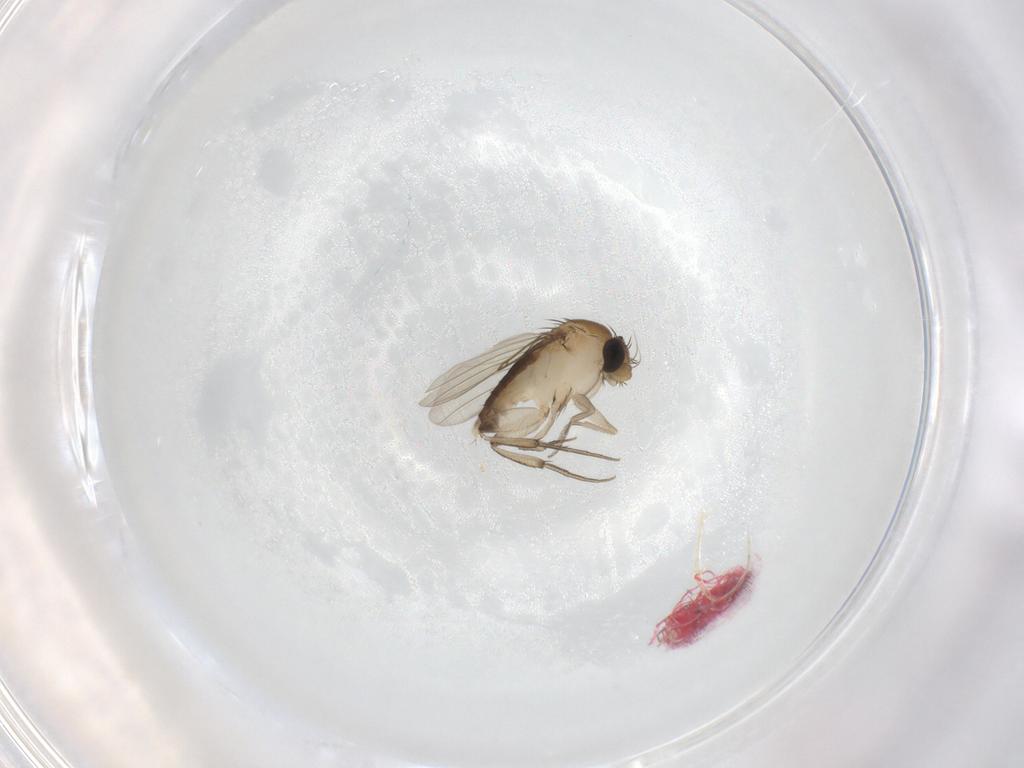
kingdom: Animalia
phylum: Arthropoda
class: Insecta
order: Diptera
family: Phoridae
